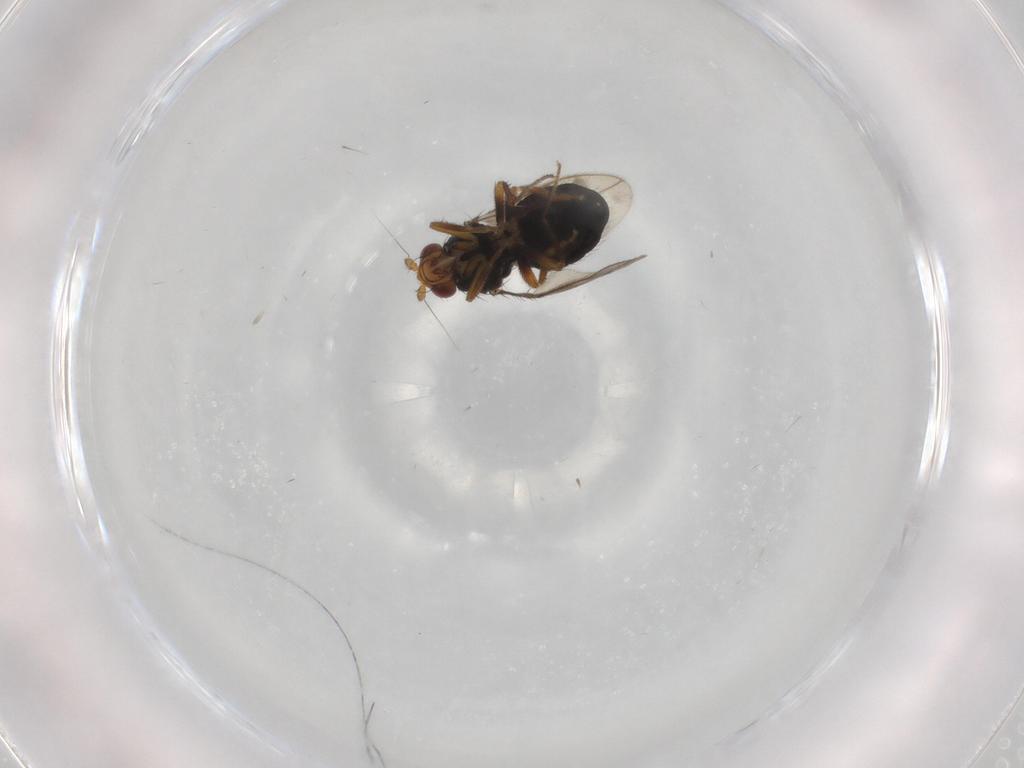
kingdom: Animalia
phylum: Arthropoda
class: Insecta
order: Diptera
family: Sphaeroceridae
